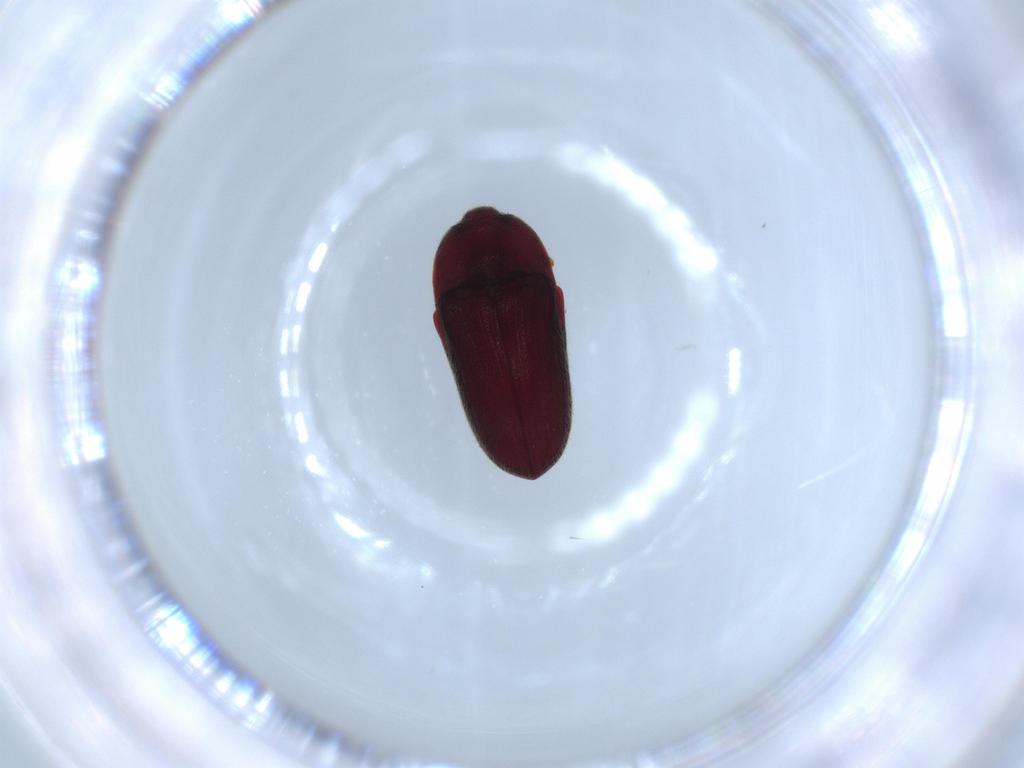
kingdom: Animalia
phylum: Arthropoda
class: Insecta
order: Coleoptera
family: Throscidae
